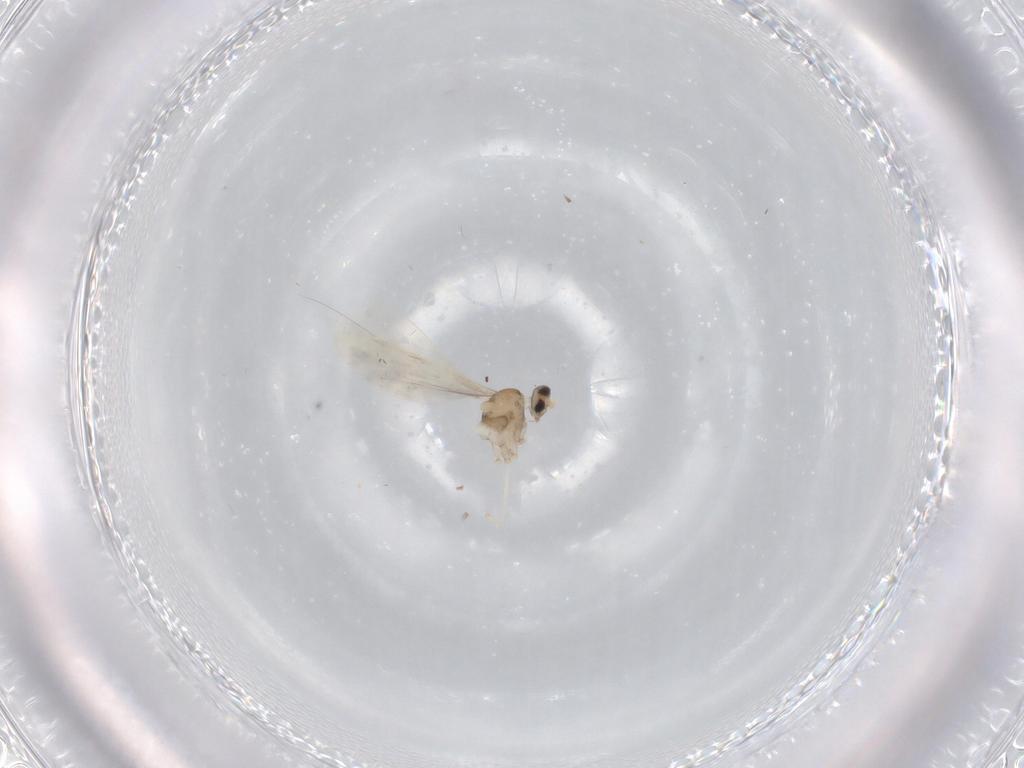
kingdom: Animalia
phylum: Arthropoda
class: Insecta
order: Diptera
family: Cecidomyiidae
